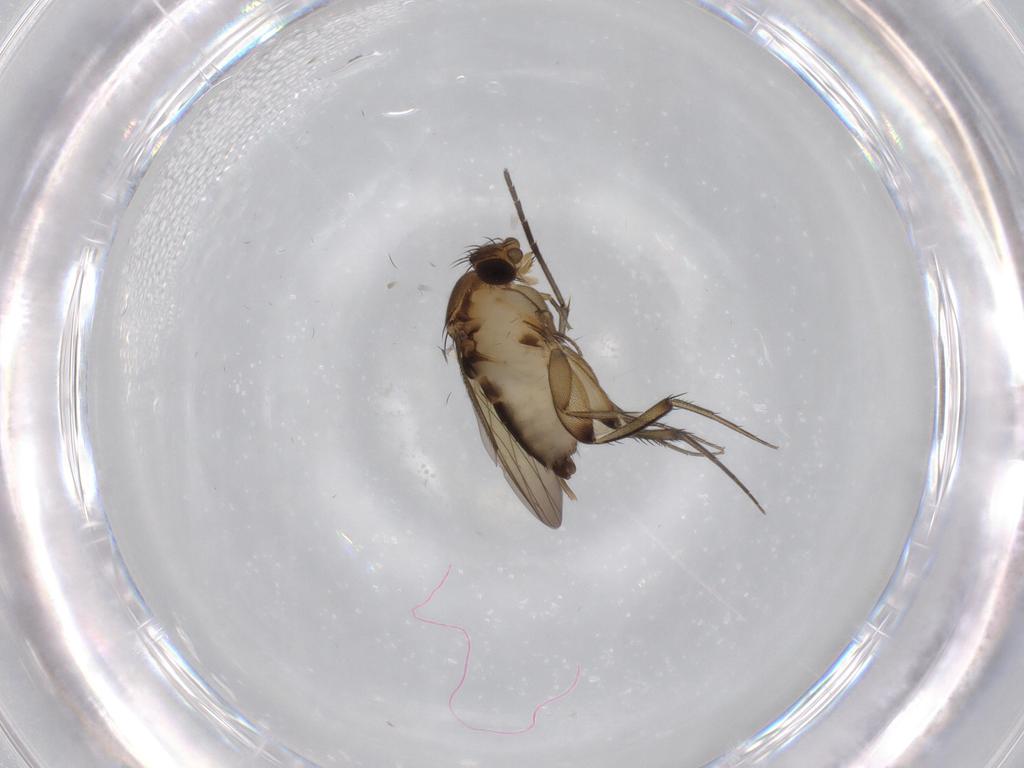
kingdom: Animalia
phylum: Arthropoda
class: Insecta
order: Diptera
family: Phoridae
